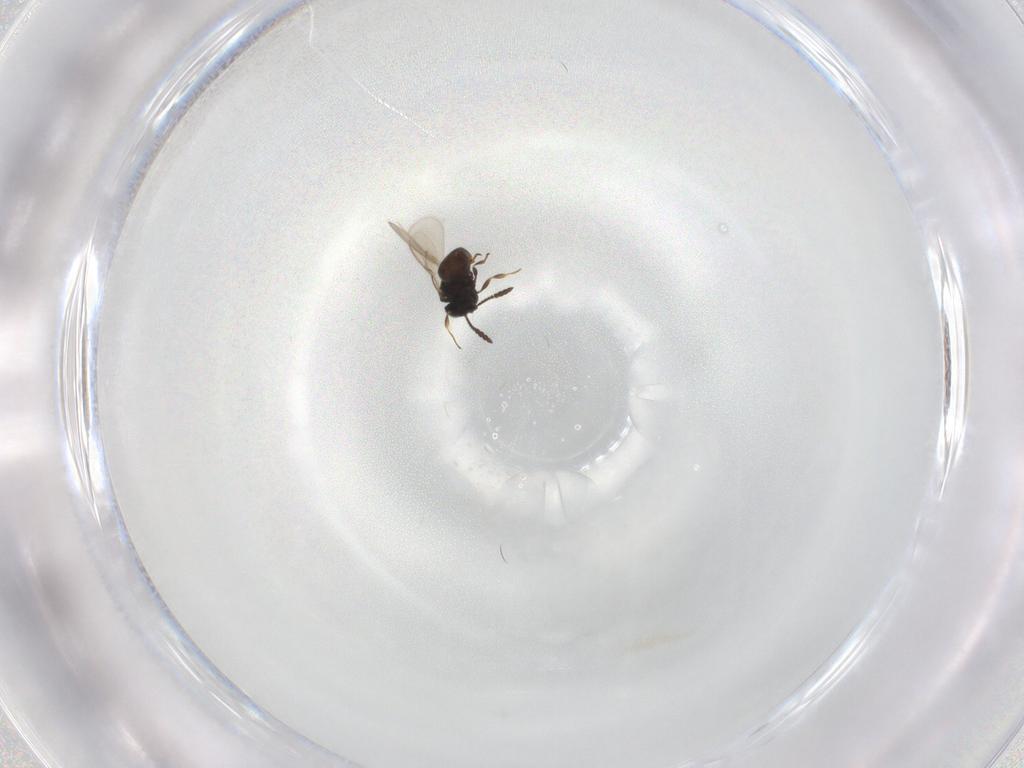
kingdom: Animalia
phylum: Arthropoda
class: Insecta
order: Hymenoptera
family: Scelionidae
